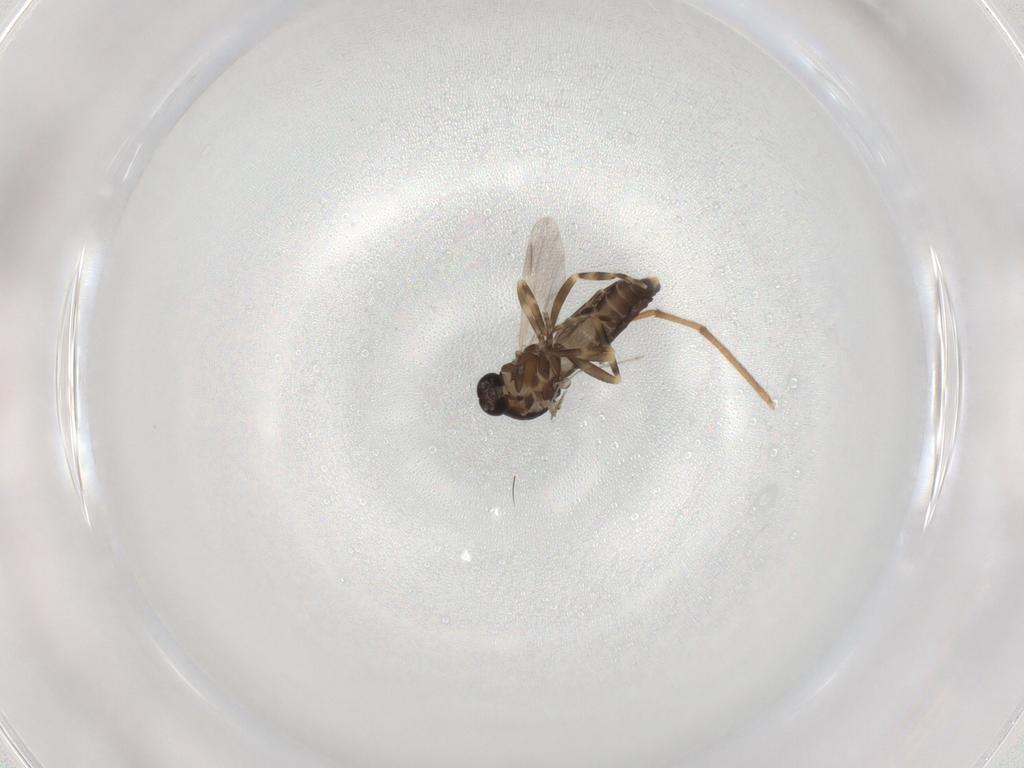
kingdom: Animalia
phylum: Arthropoda
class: Insecta
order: Diptera
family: Ceratopogonidae
